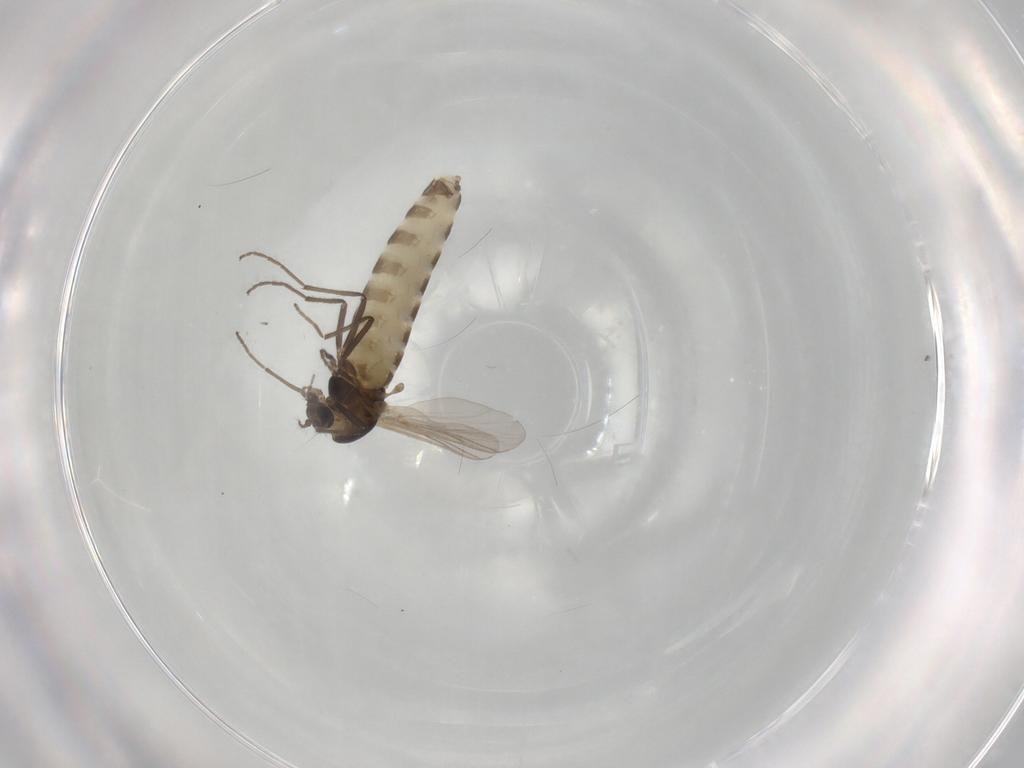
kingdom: Animalia
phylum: Arthropoda
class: Insecta
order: Diptera
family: Chironomidae
